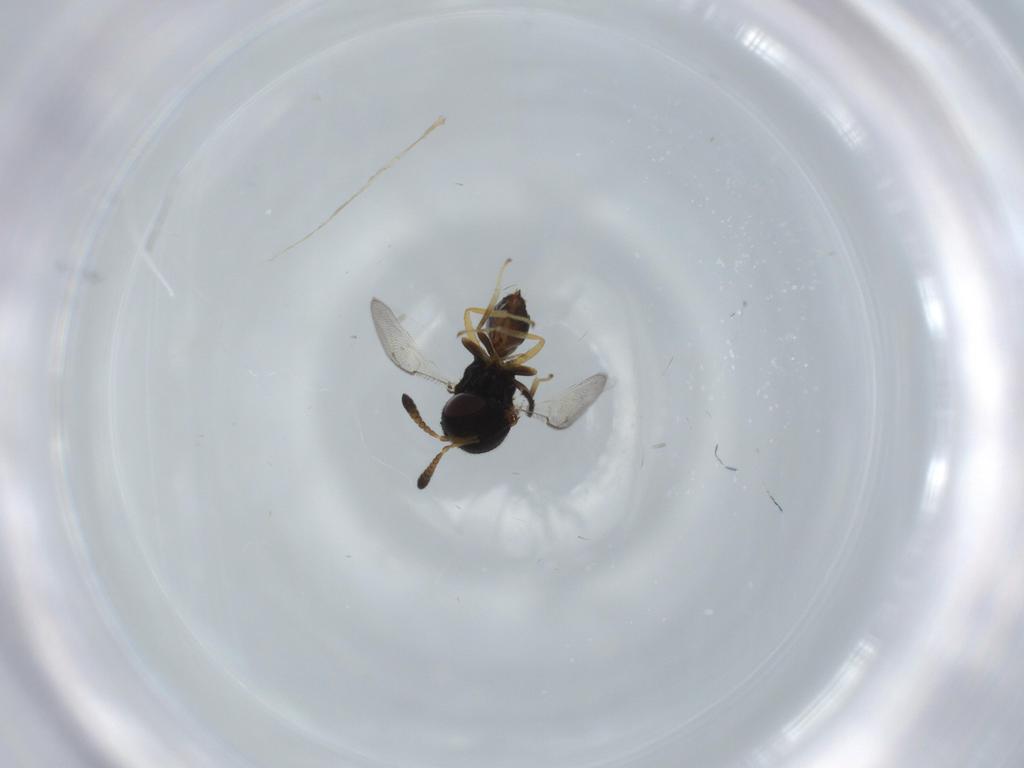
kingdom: Animalia
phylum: Arthropoda
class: Insecta
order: Hymenoptera
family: Pteromalidae
